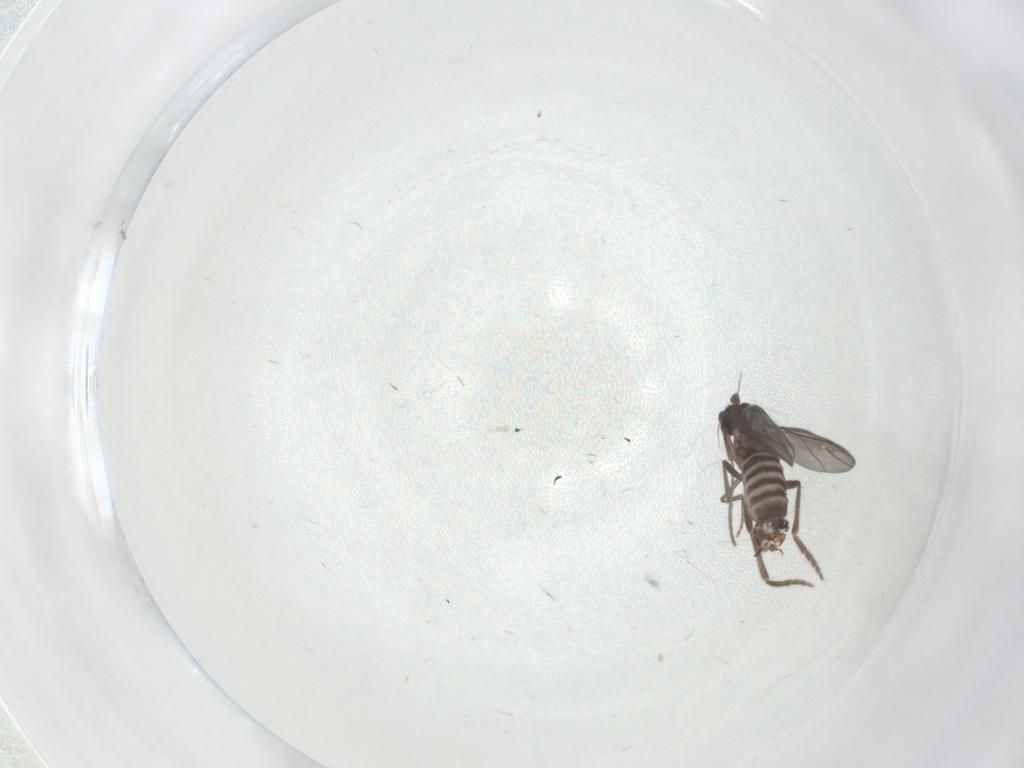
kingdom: Animalia
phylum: Arthropoda
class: Insecta
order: Diptera
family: Phoridae
